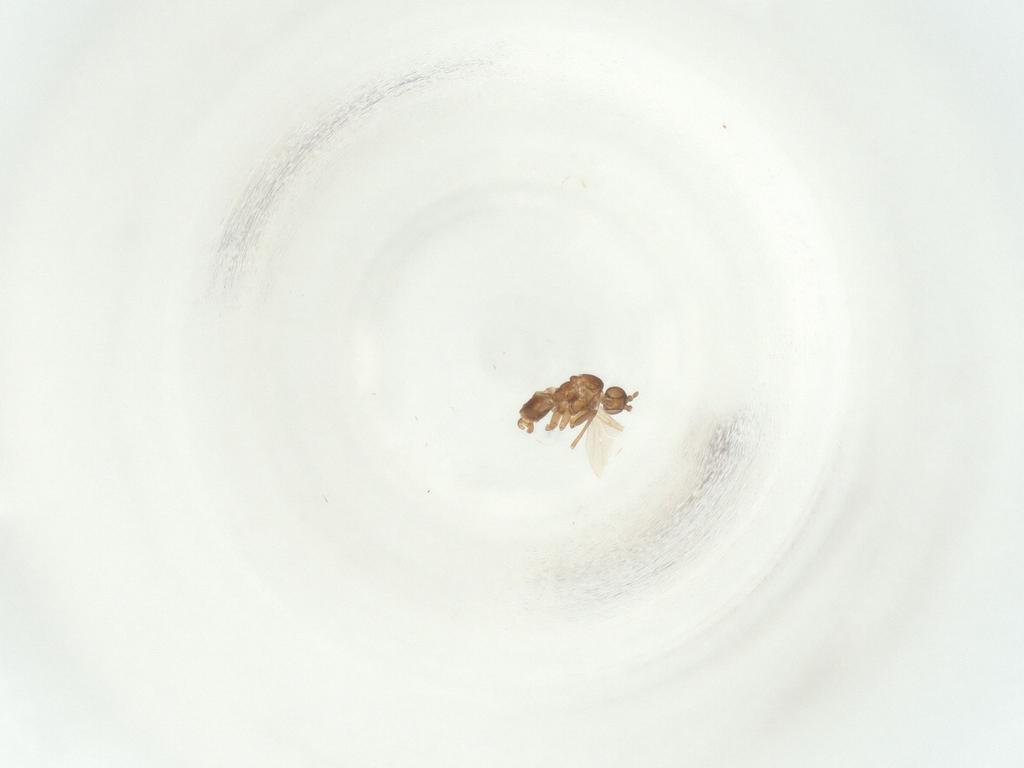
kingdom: Animalia
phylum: Arthropoda
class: Insecta
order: Diptera
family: Sciaridae
